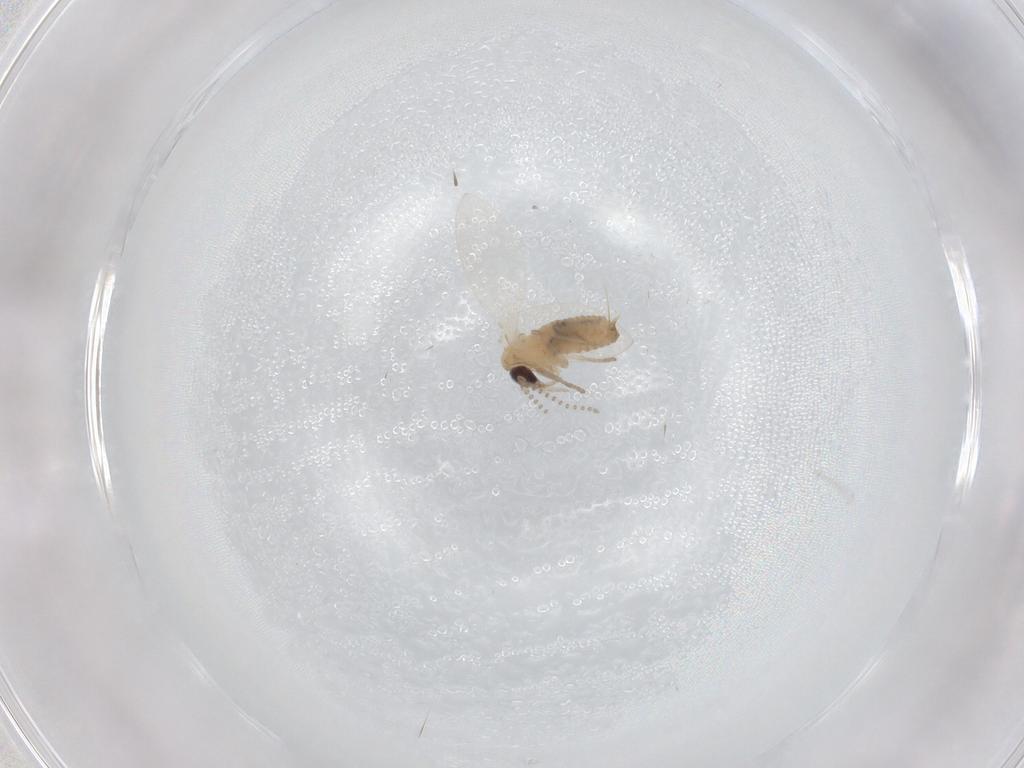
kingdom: Animalia
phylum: Arthropoda
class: Insecta
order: Diptera
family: Psychodidae
